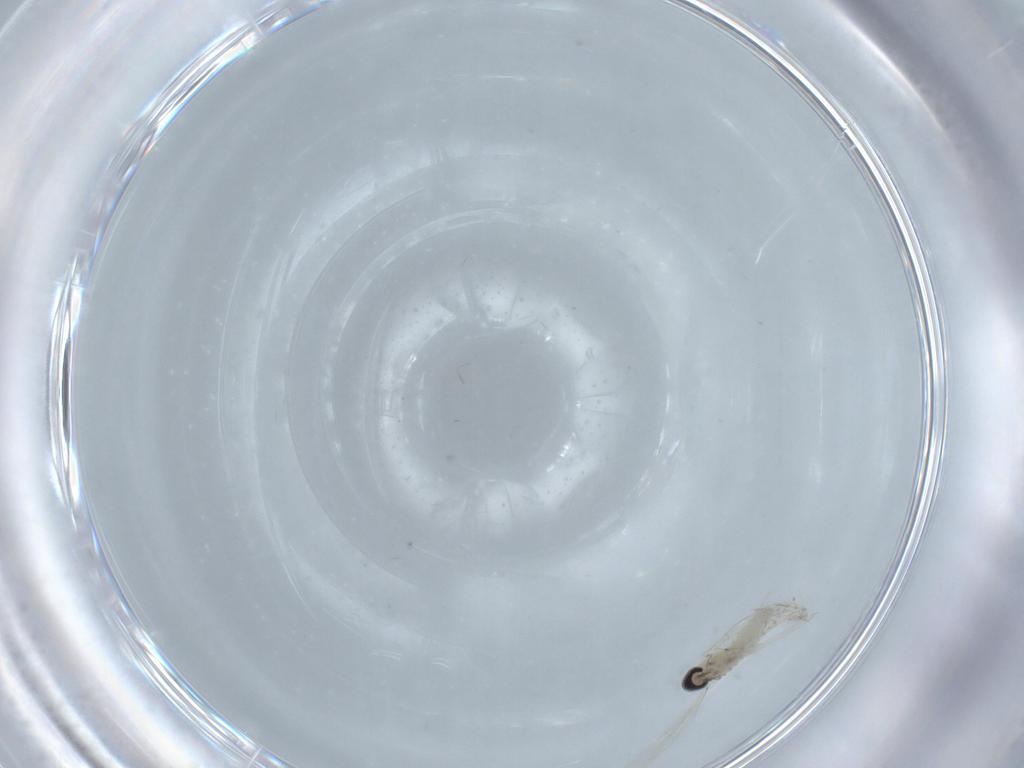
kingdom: Animalia
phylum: Arthropoda
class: Insecta
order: Diptera
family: Cecidomyiidae
